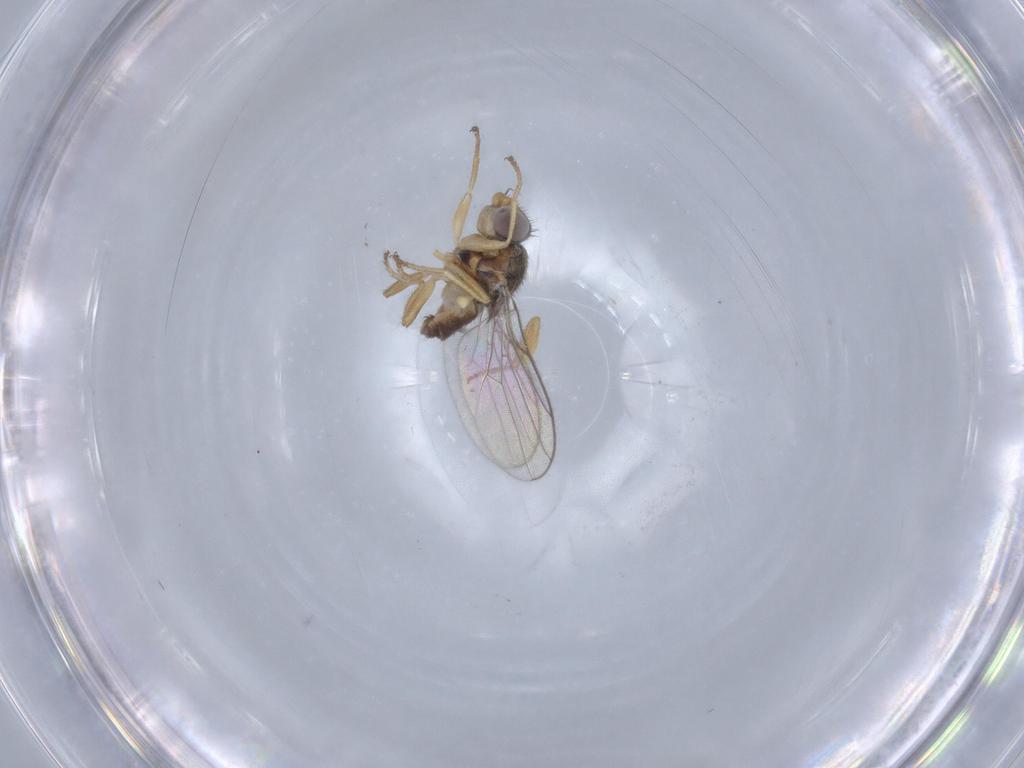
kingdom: Animalia
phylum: Arthropoda
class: Insecta
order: Diptera
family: Chloropidae
